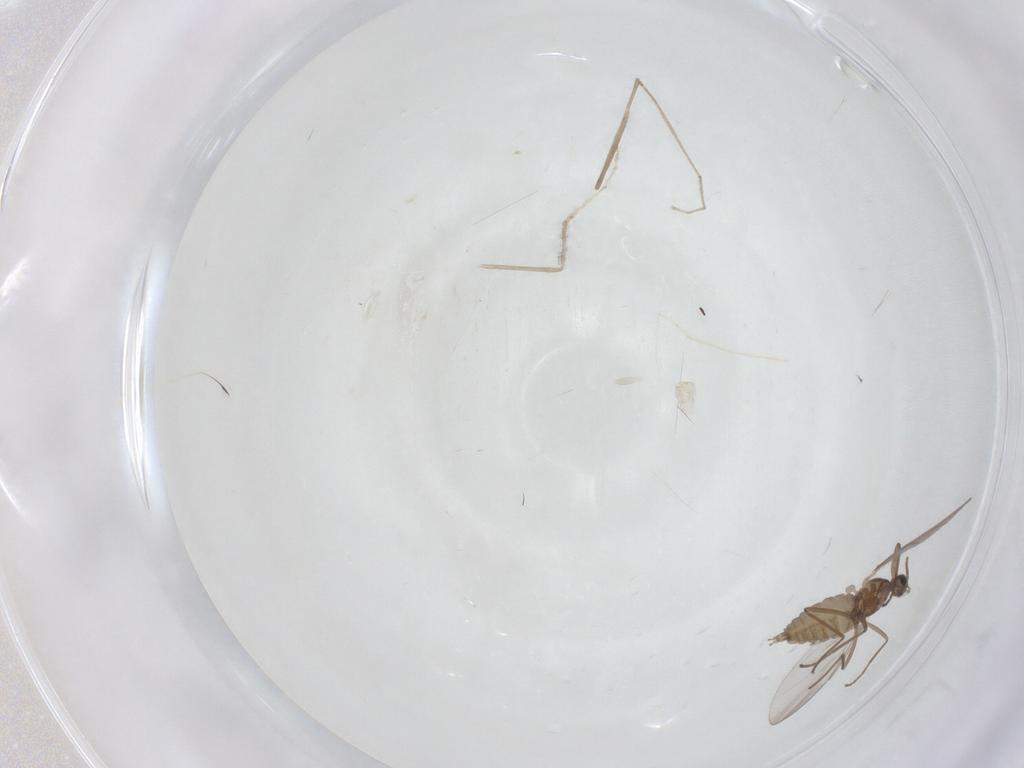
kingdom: Animalia
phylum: Arthropoda
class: Insecta
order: Diptera
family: Cecidomyiidae
